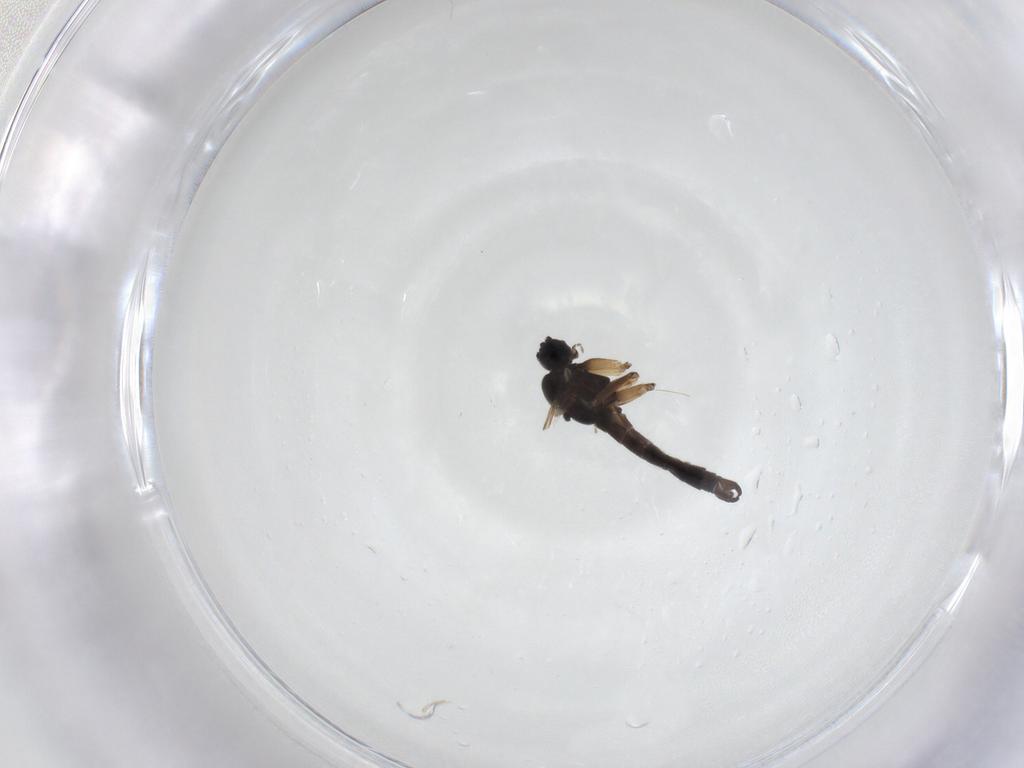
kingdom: Animalia
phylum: Arthropoda
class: Insecta
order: Diptera
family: Sciaridae
